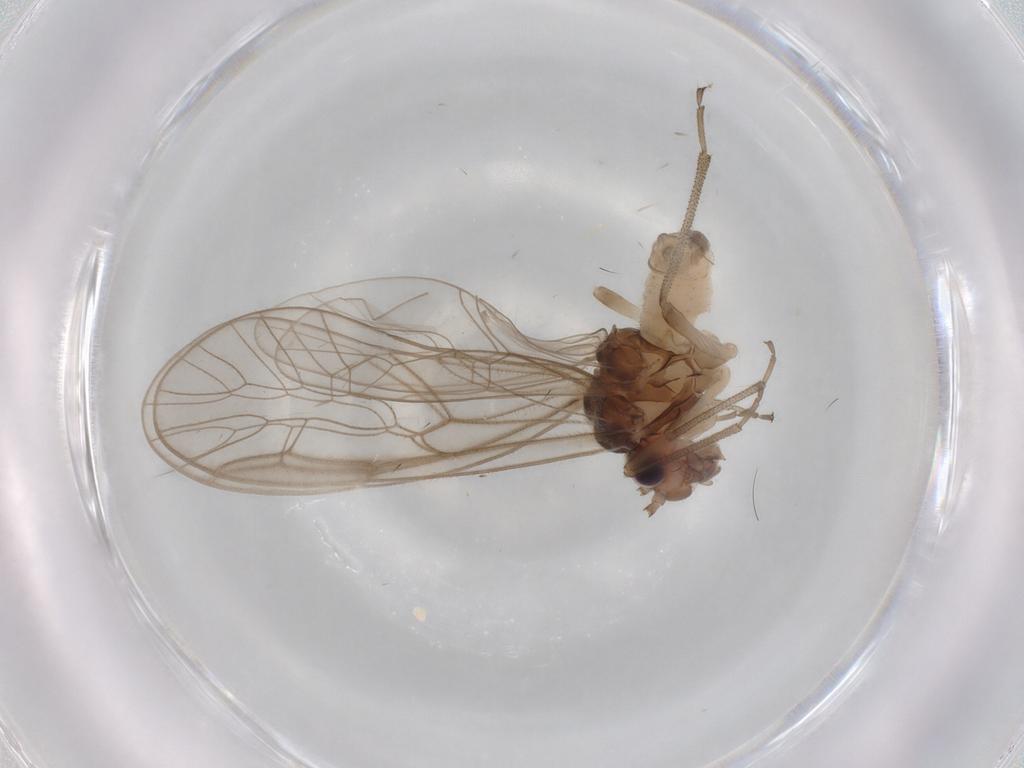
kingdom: Animalia
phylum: Arthropoda
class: Insecta
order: Psocodea
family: Stenopsocidae
